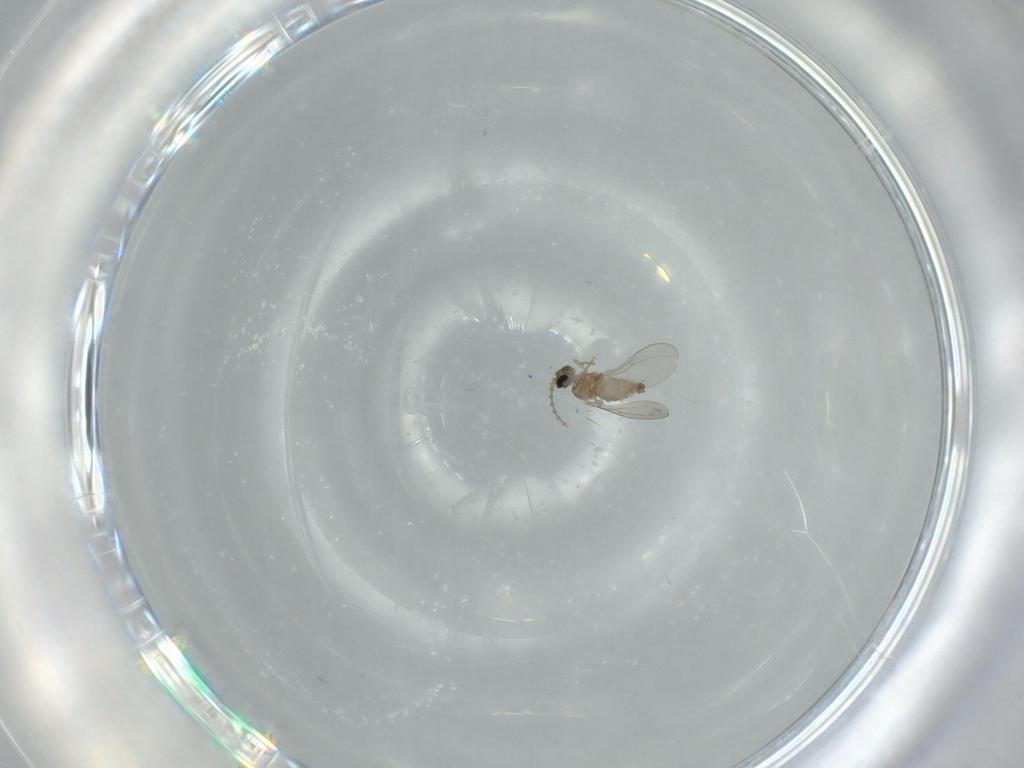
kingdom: Animalia
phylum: Arthropoda
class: Insecta
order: Diptera
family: Cecidomyiidae
